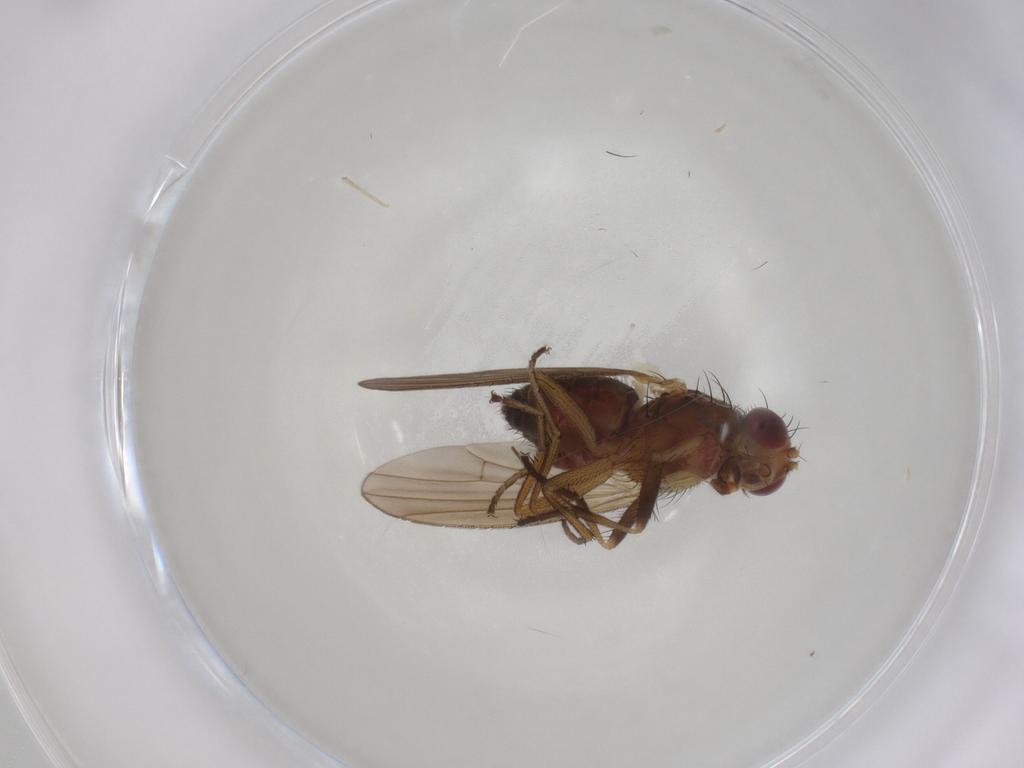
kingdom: Animalia
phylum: Arthropoda
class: Insecta
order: Diptera
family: Heleomyzidae
